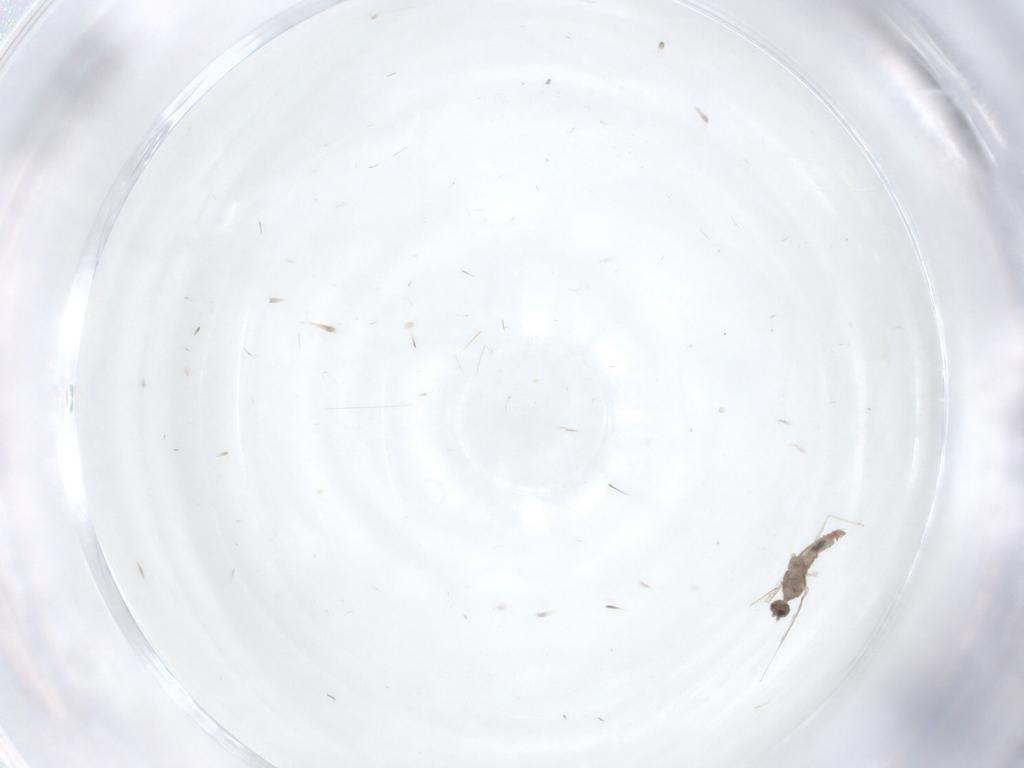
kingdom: Animalia
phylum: Arthropoda
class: Insecta
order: Diptera
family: Cecidomyiidae
